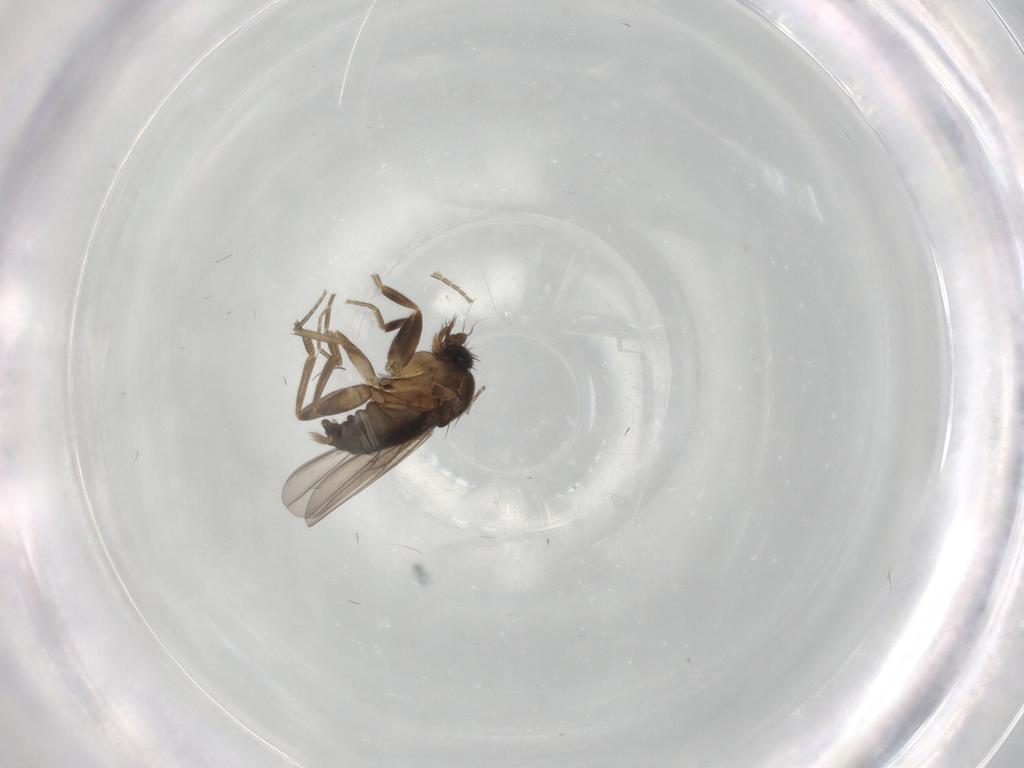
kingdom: Animalia
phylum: Arthropoda
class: Insecta
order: Diptera
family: Phoridae
